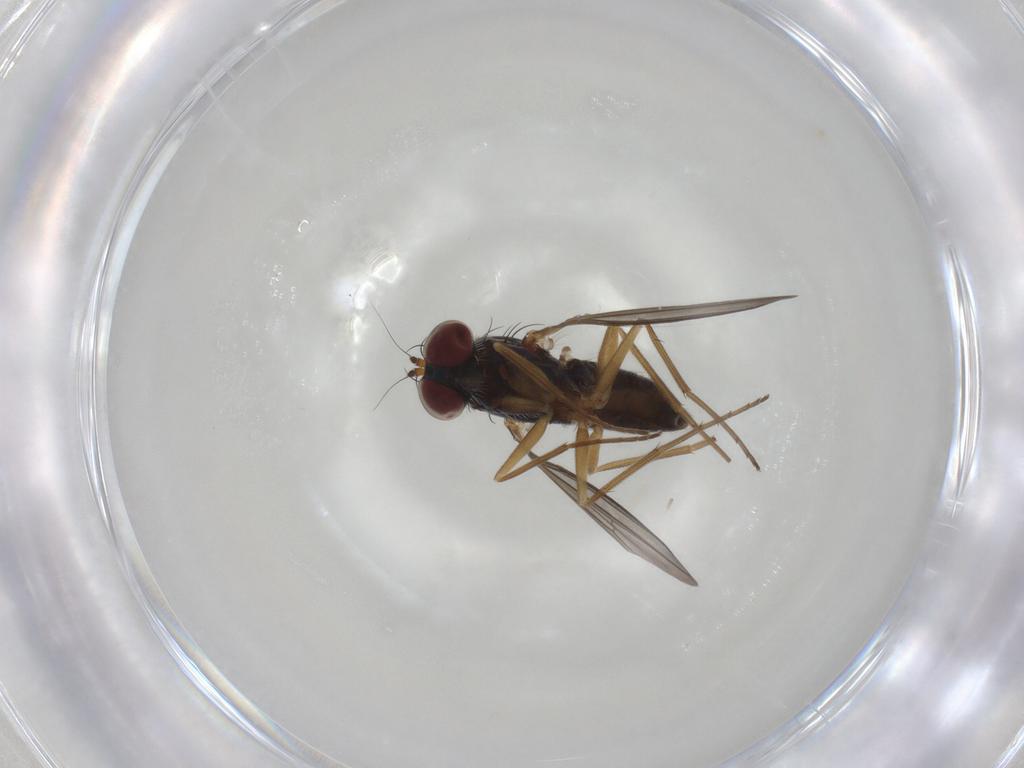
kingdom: Animalia
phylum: Arthropoda
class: Insecta
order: Diptera
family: Dolichopodidae
